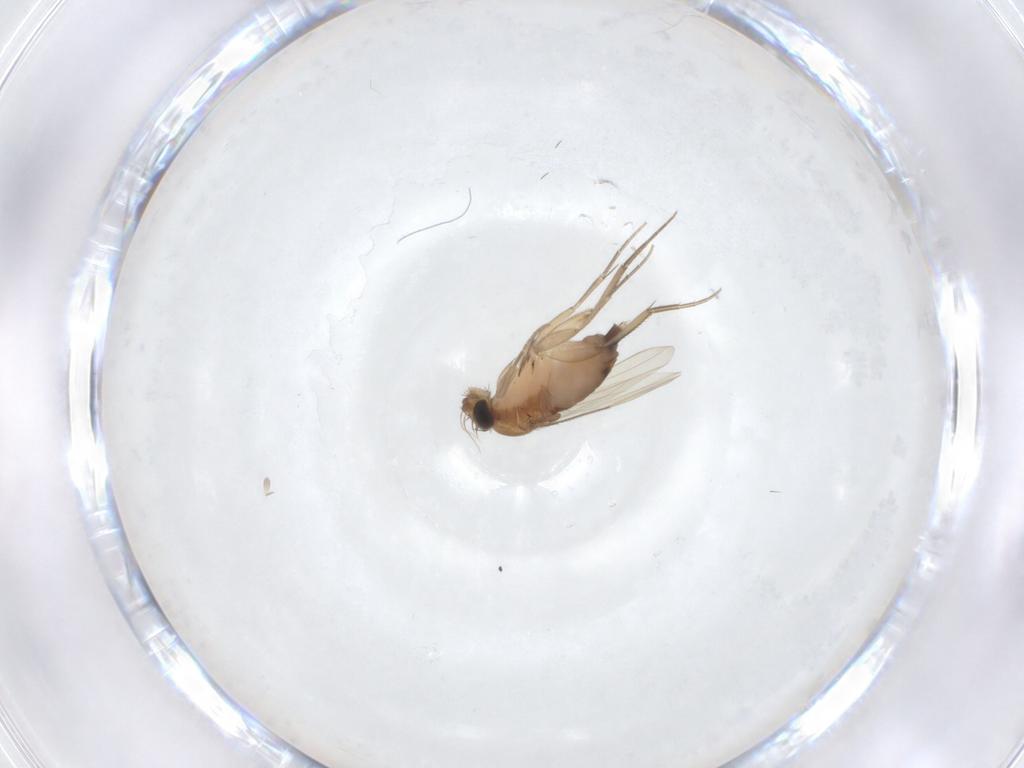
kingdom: Animalia
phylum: Arthropoda
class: Insecta
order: Diptera
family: Phoridae
